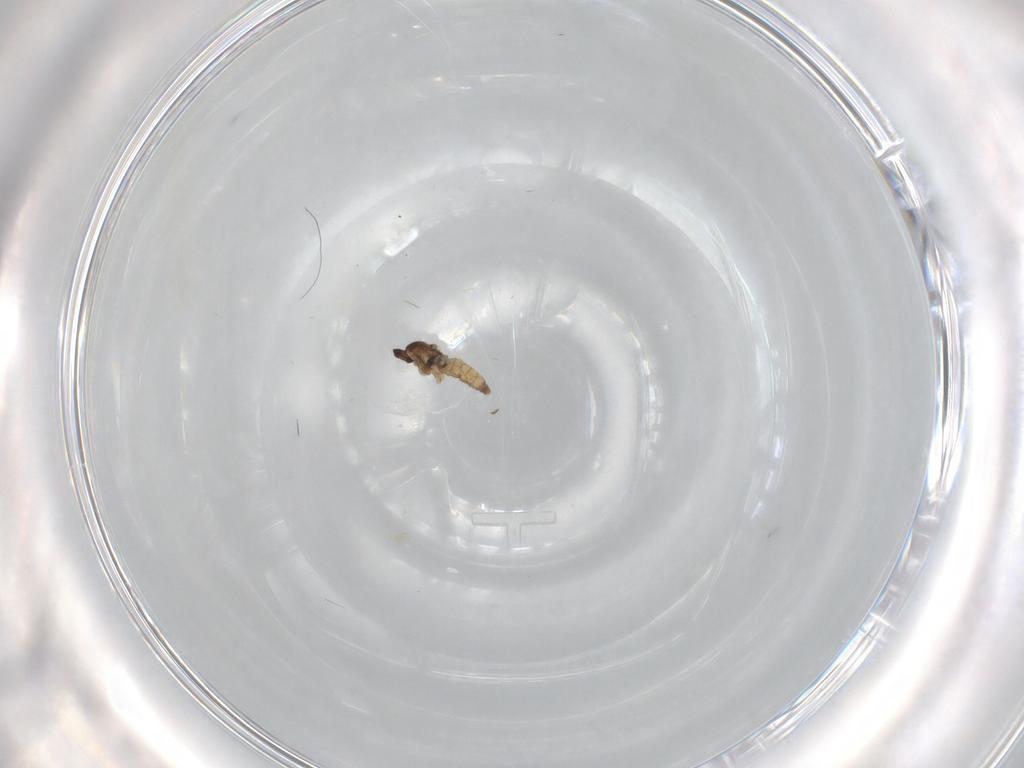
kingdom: Animalia
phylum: Arthropoda
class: Insecta
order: Diptera
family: Cecidomyiidae
